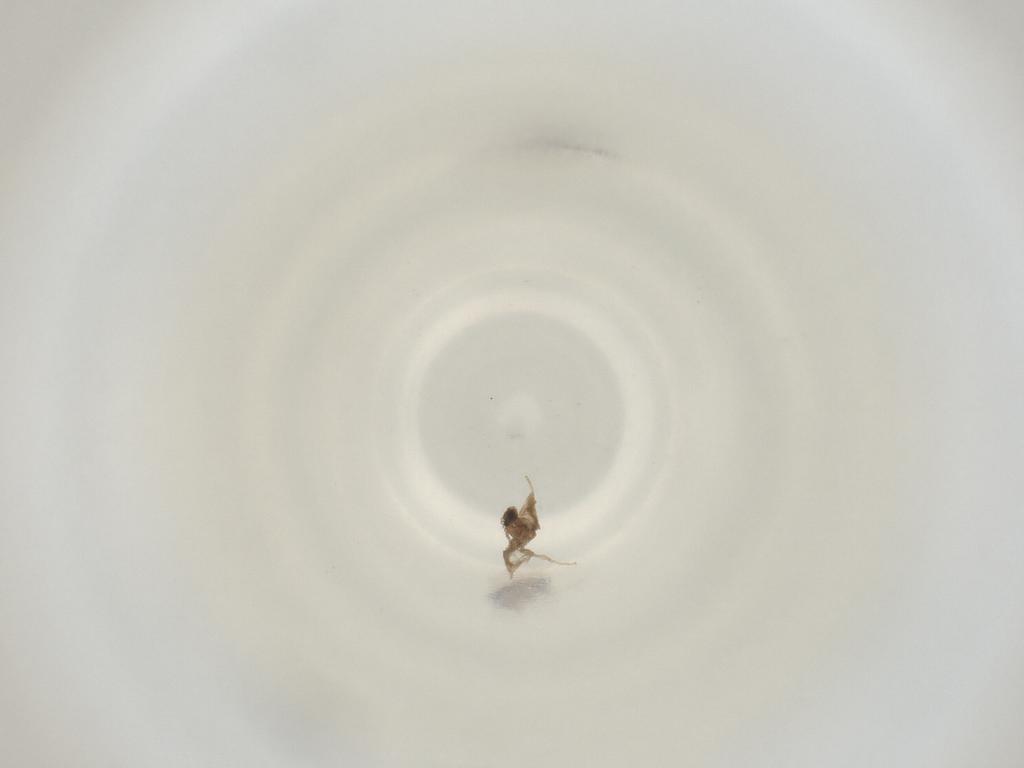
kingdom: Animalia
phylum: Arthropoda
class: Insecta
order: Diptera
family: Cecidomyiidae
